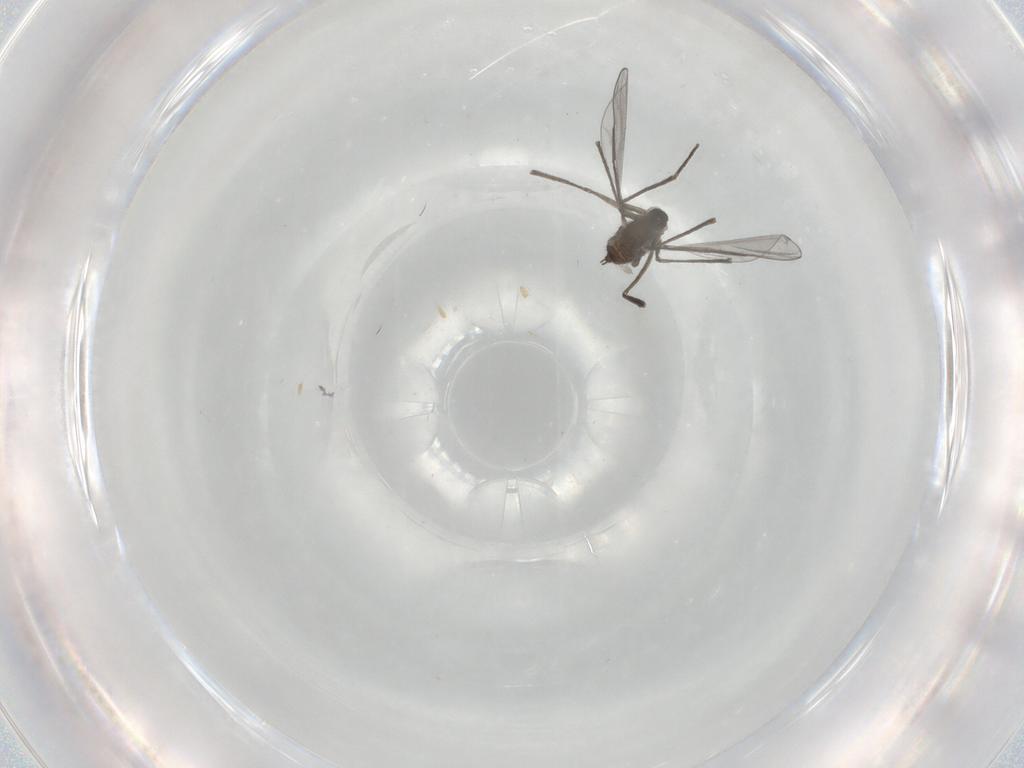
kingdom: Animalia
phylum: Arthropoda
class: Insecta
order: Diptera
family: Cecidomyiidae
